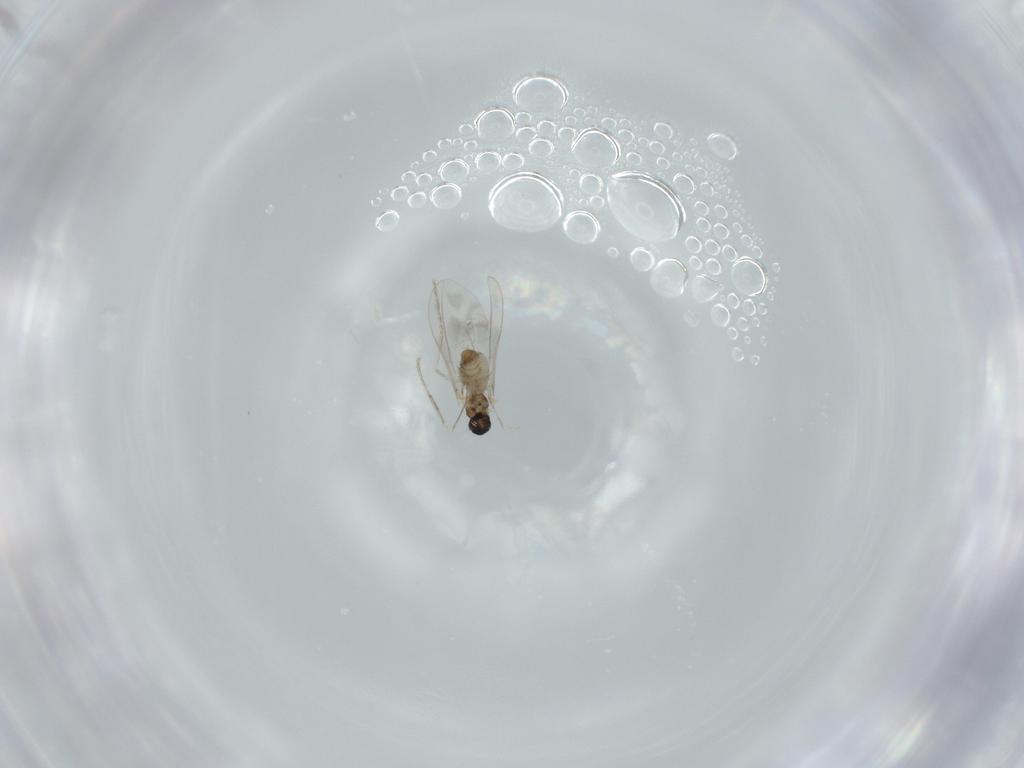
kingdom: Animalia
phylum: Arthropoda
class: Insecta
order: Diptera
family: Cecidomyiidae
